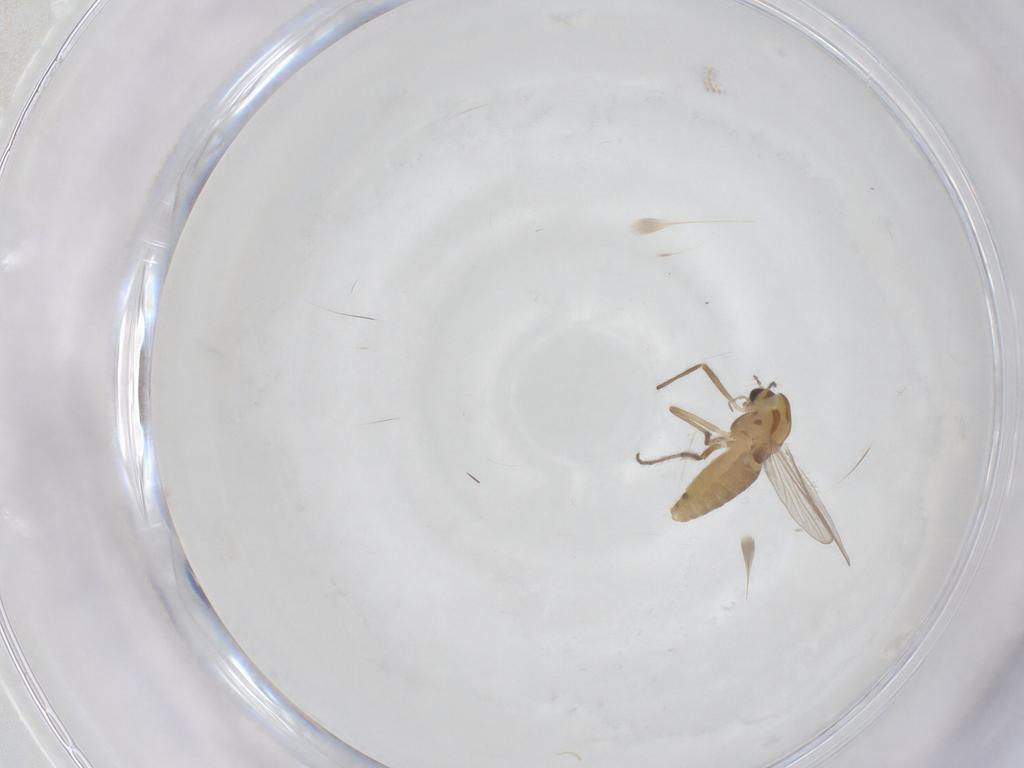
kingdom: Animalia
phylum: Arthropoda
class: Insecta
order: Diptera
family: Chironomidae
